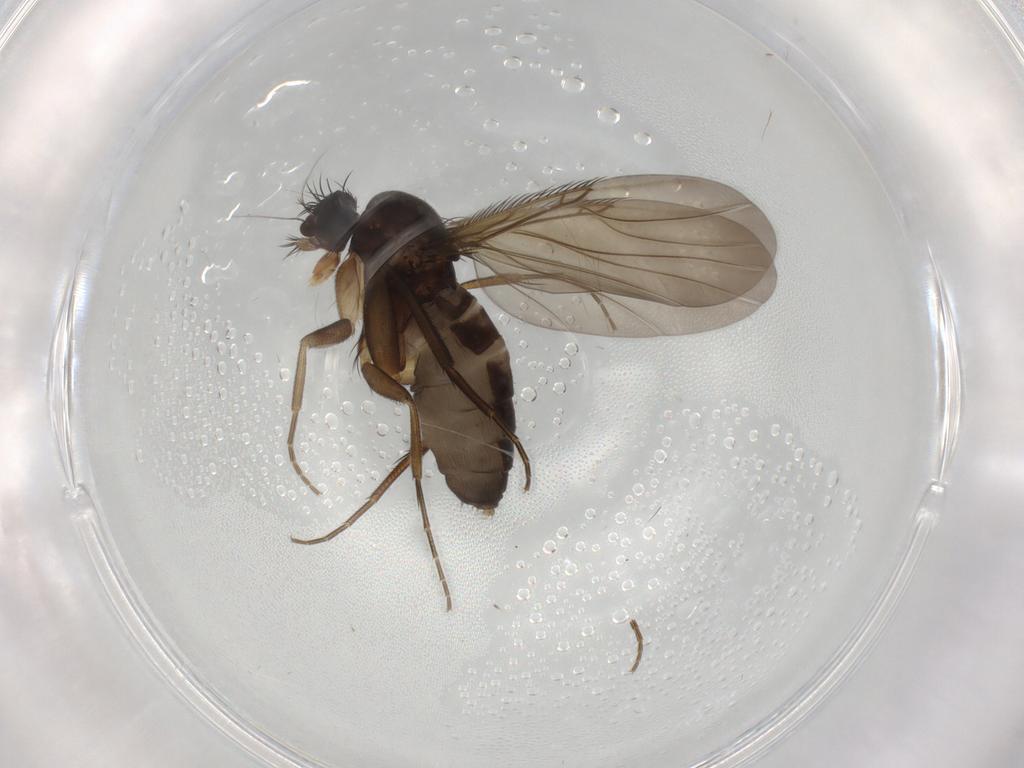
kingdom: Animalia
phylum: Arthropoda
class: Insecta
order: Diptera
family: Phoridae
